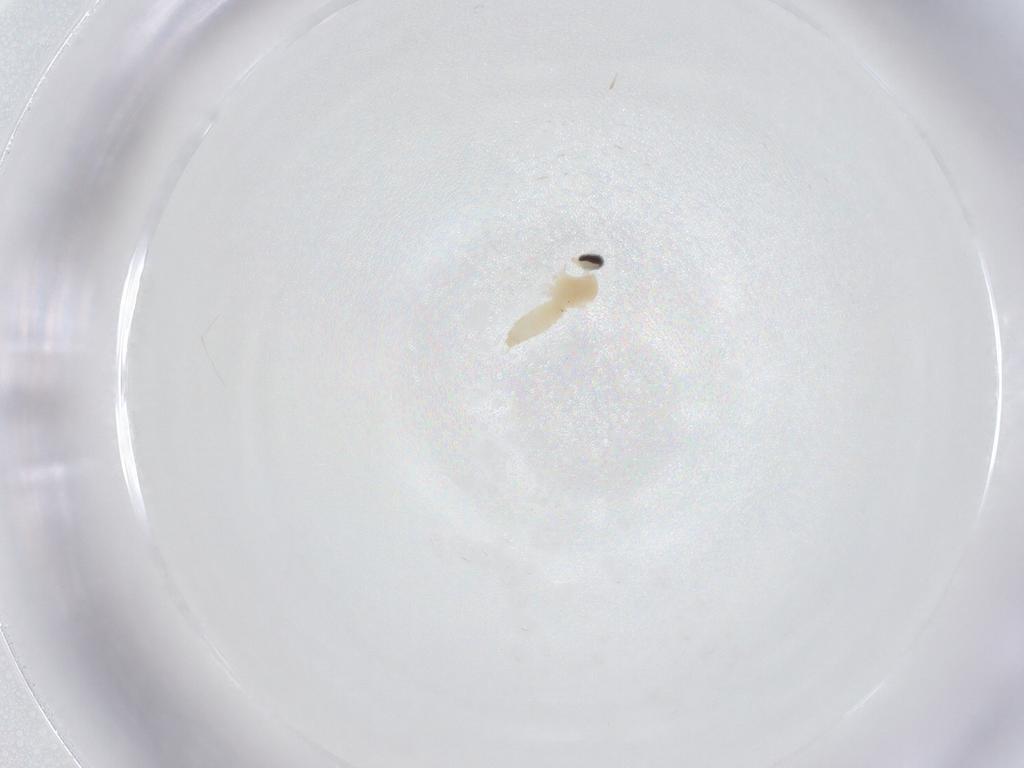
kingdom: Animalia
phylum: Arthropoda
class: Insecta
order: Diptera
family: Cecidomyiidae
